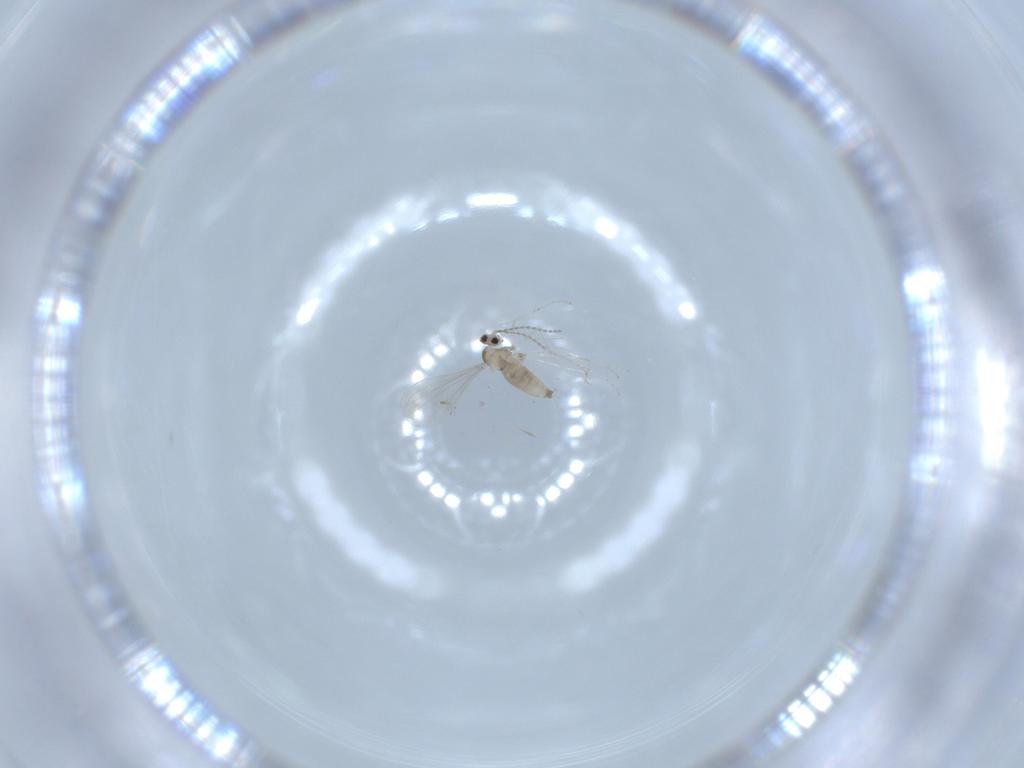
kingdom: Animalia
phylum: Arthropoda
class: Insecta
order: Diptera
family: Cecidomyiidae
